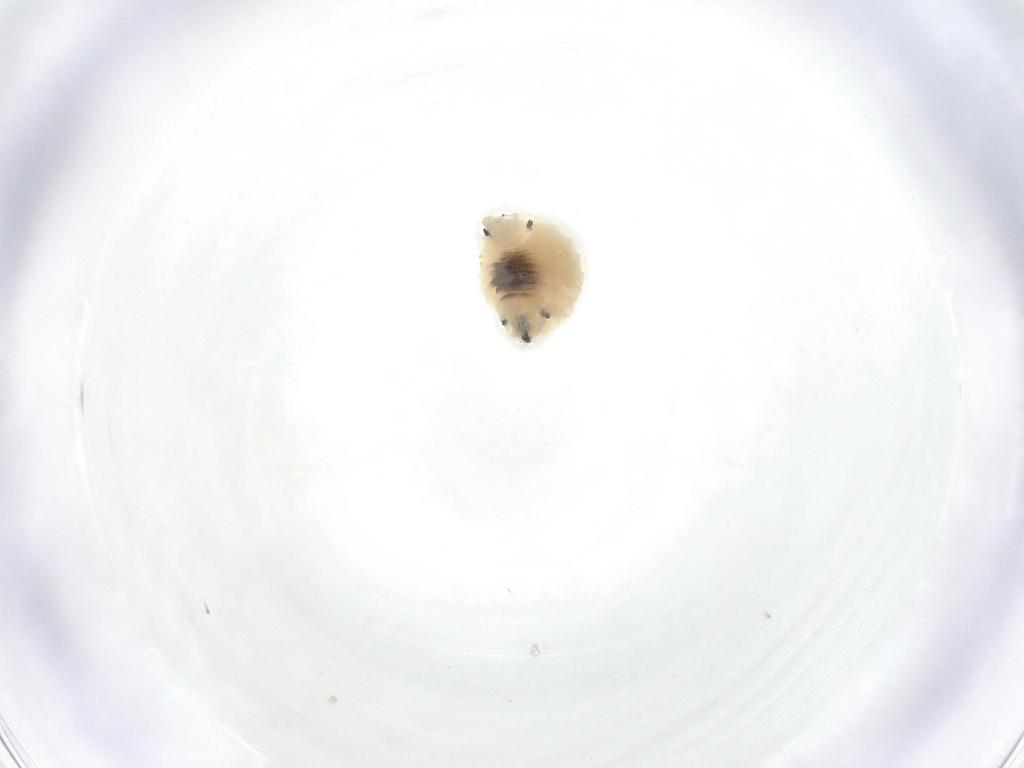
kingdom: Animalia
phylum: Arthropoda
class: Insecta
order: Diptera
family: Fergusoninidae
